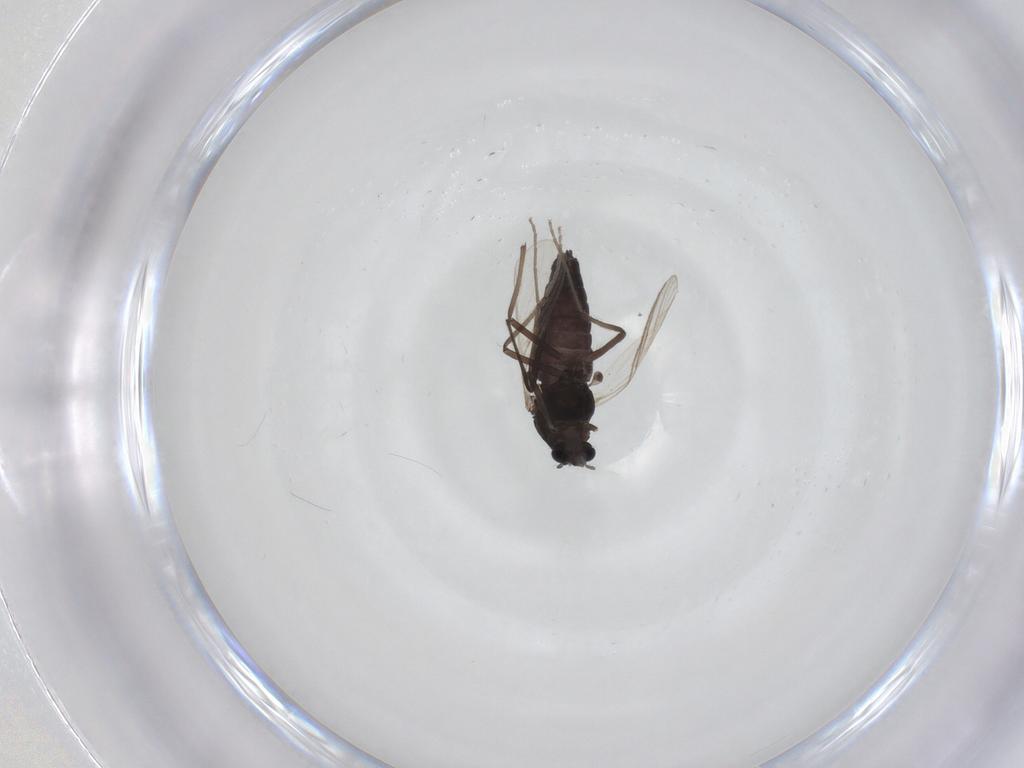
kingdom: Animalia
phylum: Arthropoda
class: Insecta
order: Diptera
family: Chironomidae
